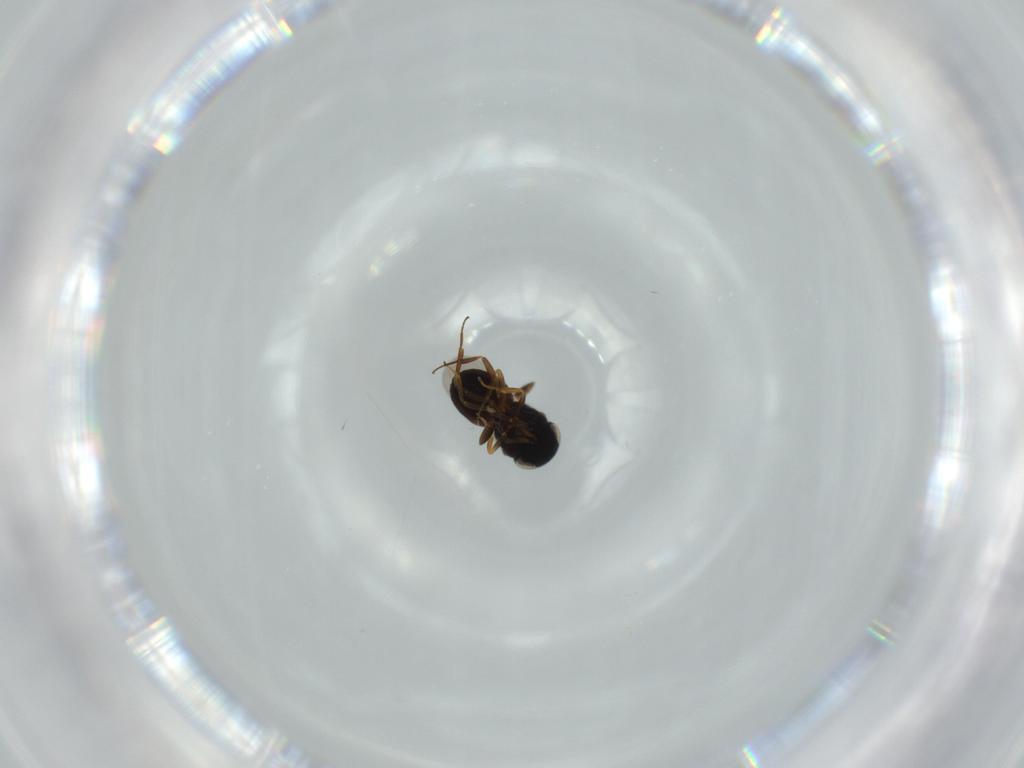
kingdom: Animalia
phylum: Arthropoda
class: Insecta
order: Hymenoptera
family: Scelionidae
